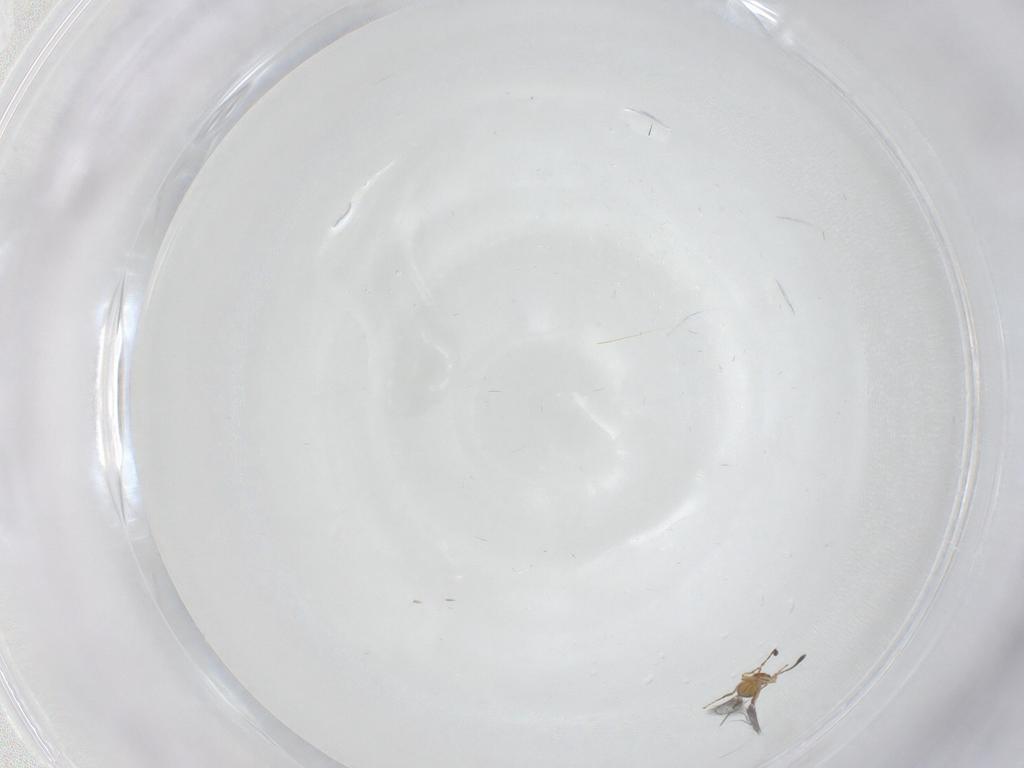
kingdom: Animalia
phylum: Arthropoda
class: Insecta
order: Hymenoptera
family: Mymaridae
